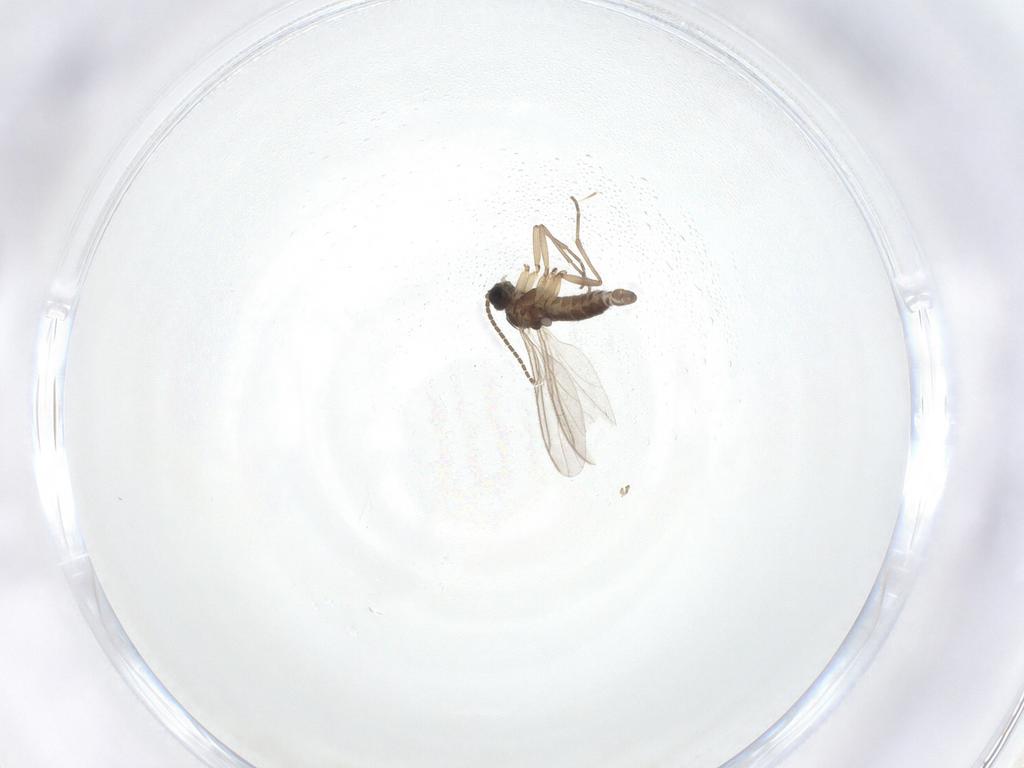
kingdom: Animalia
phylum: Arthropoda
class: Insecta
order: Diptera
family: Sciaridae
